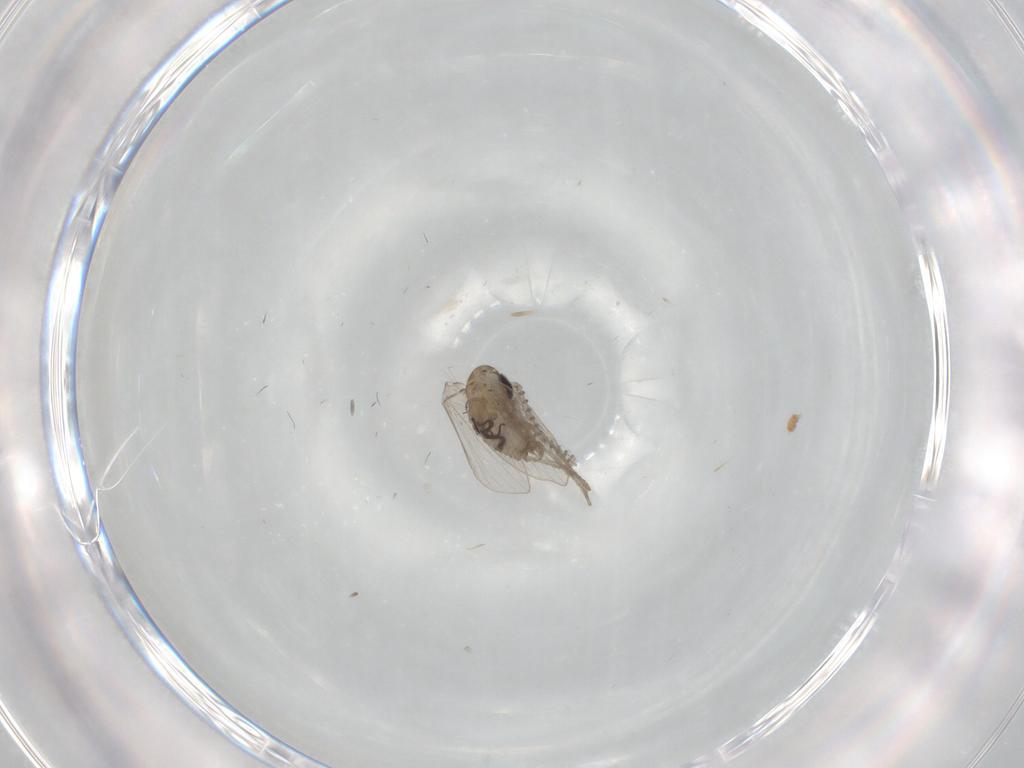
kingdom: Animalia
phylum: Arthropoda
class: Insecta
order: Diptera
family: Psychodidae
